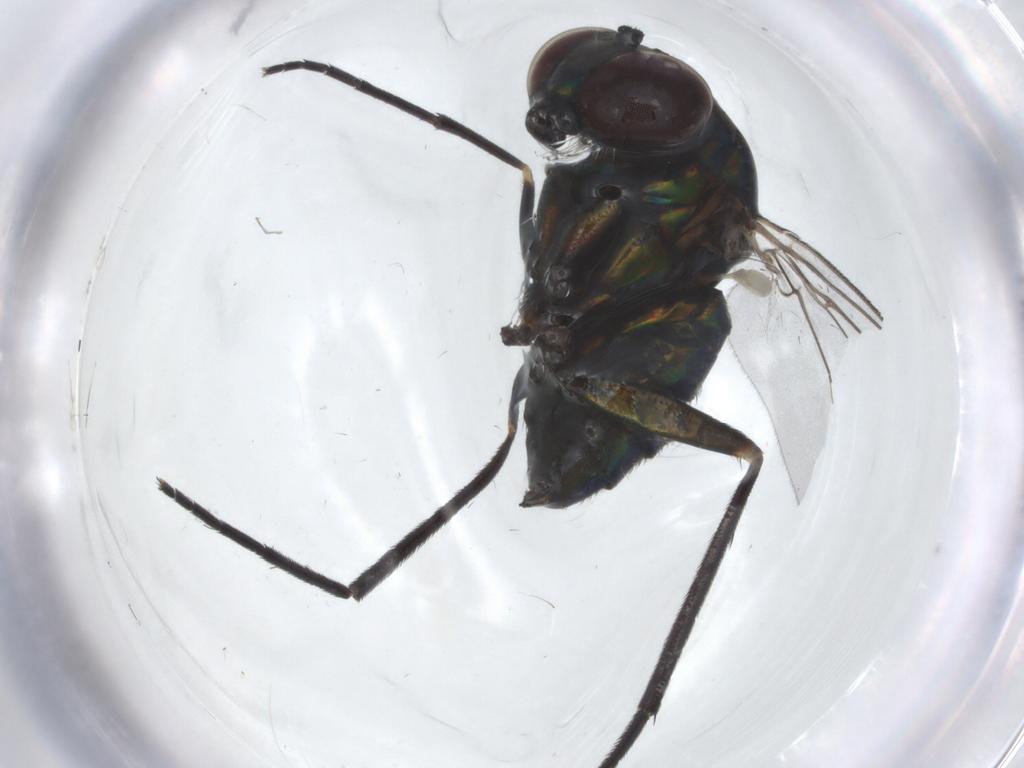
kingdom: Animalia
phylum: Arthropoda
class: Insecta
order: Diptera
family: Dolichopodidae
